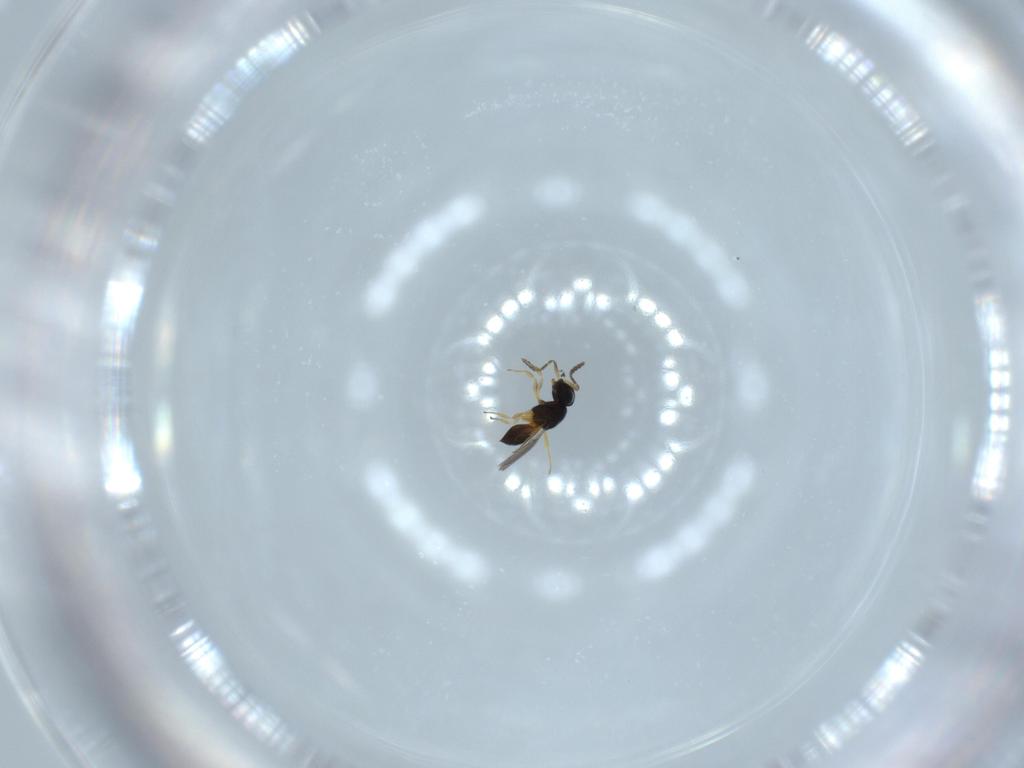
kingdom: Animalia
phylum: Arthropoda
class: Insecta
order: Hymenoptera
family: Scelionidae
